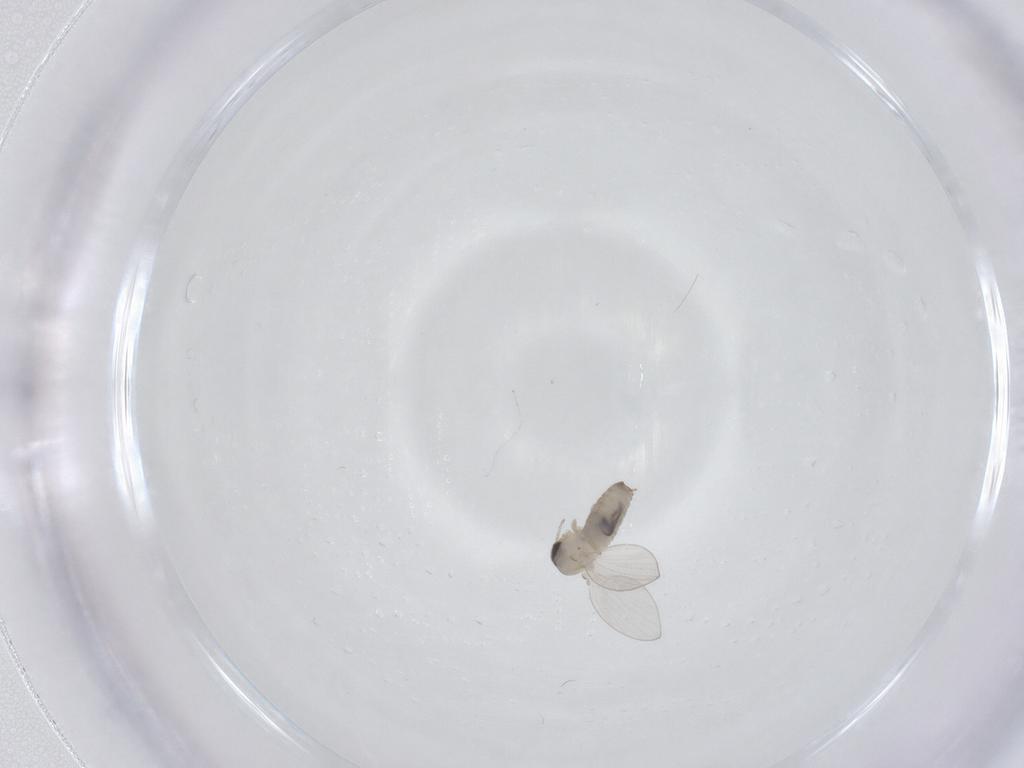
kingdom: Animalia
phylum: Arthropoda
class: Insecta
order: Diptera
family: Psychodidae
